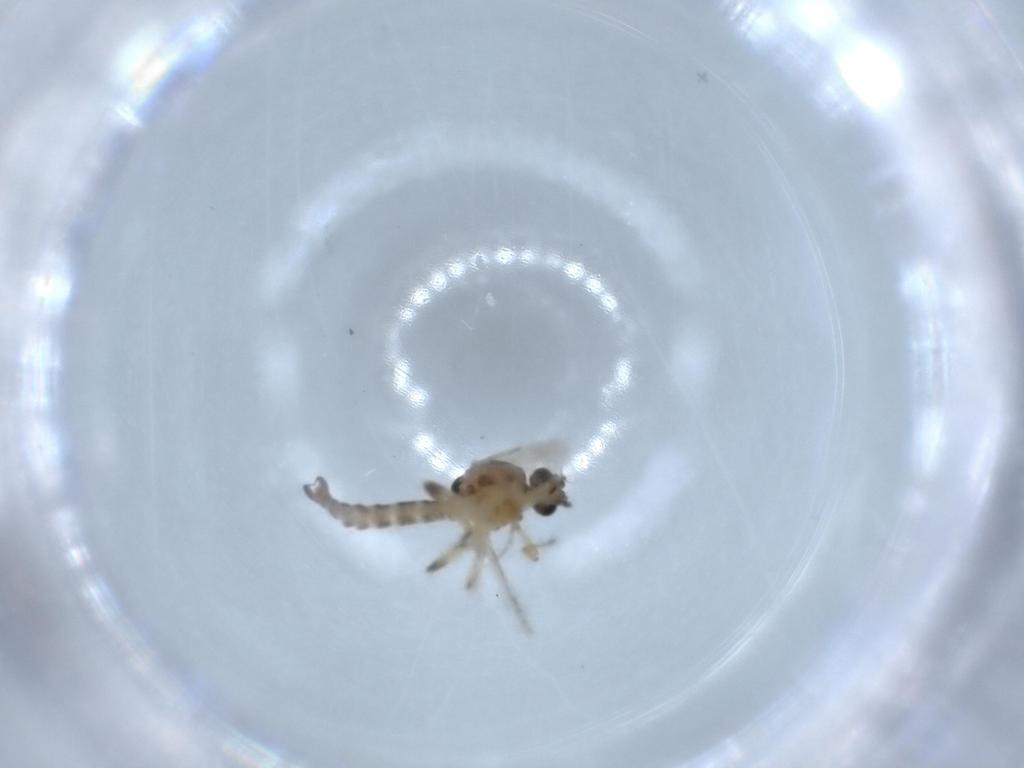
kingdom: Animalia
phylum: Arthropoda
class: Insecta
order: Diptera
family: Ceratopogonidae
